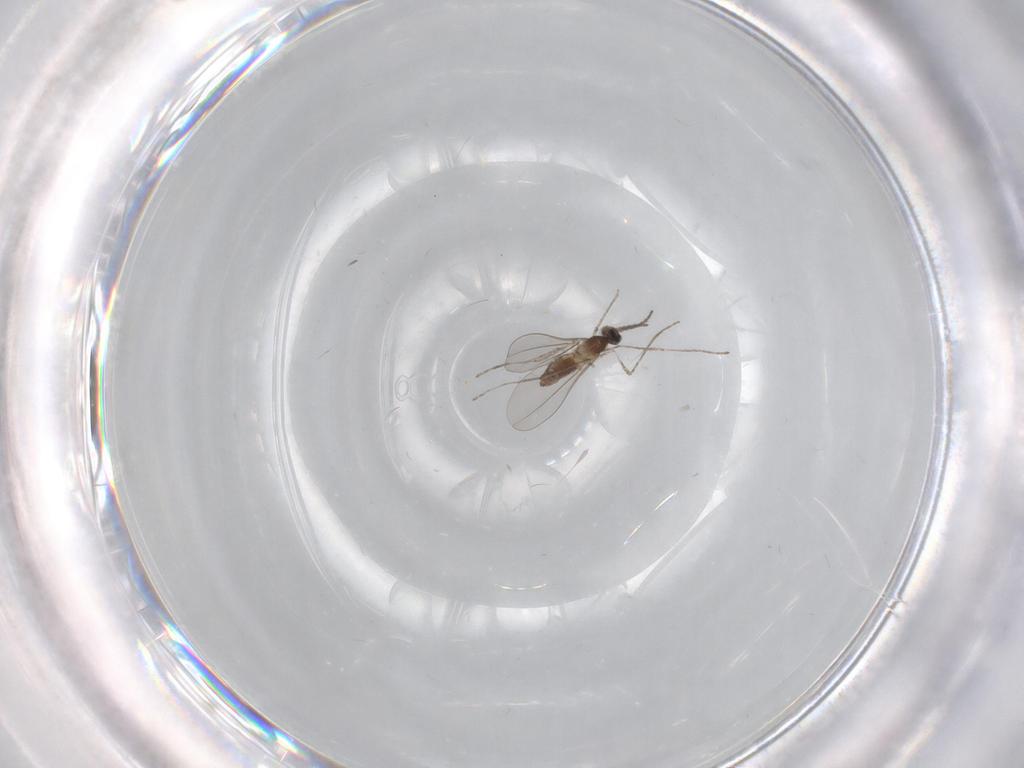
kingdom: Animalia
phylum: Arthropoda
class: Insecta
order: Diptera
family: Cecidomyiidae
